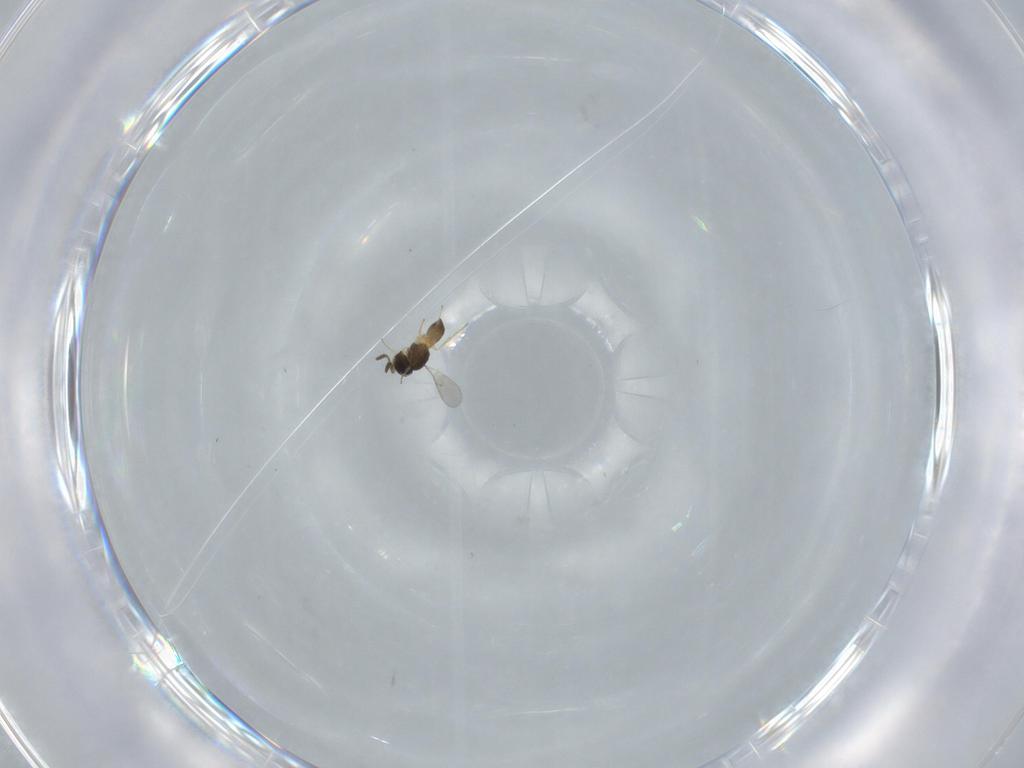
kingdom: Animalia
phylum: Arthropoda
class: Insecta
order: Hymenoptera
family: Scelionidae
